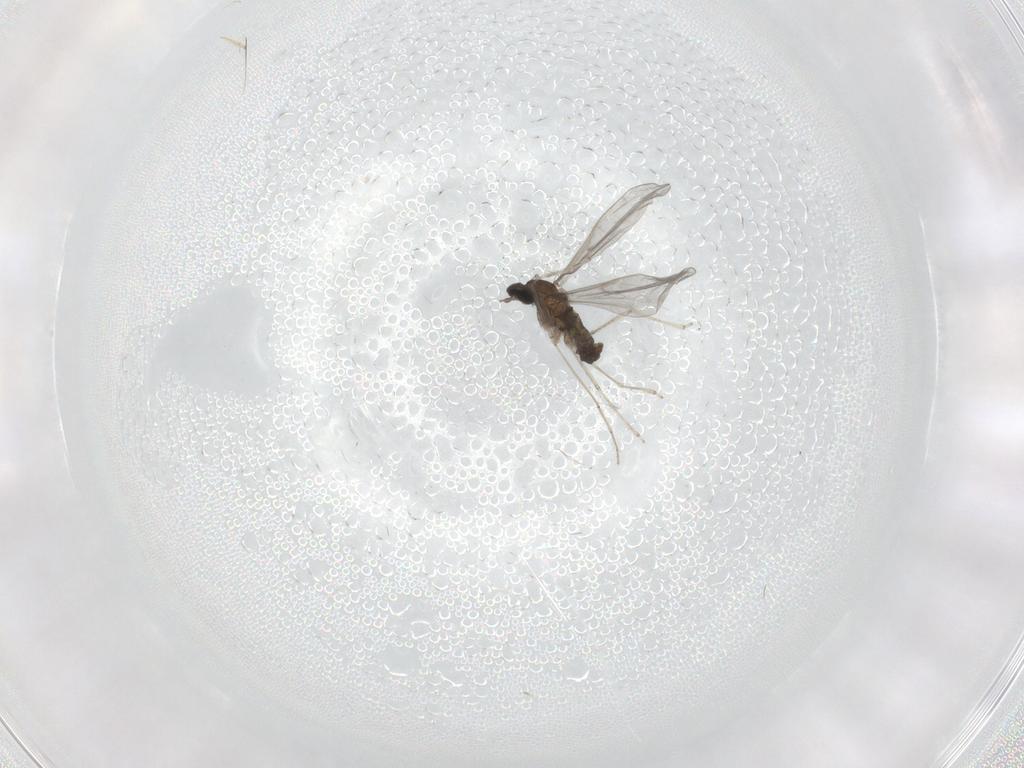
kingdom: Animalia
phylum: Arthropoda
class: Insecta
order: Diptera
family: Cecidomyiidae
